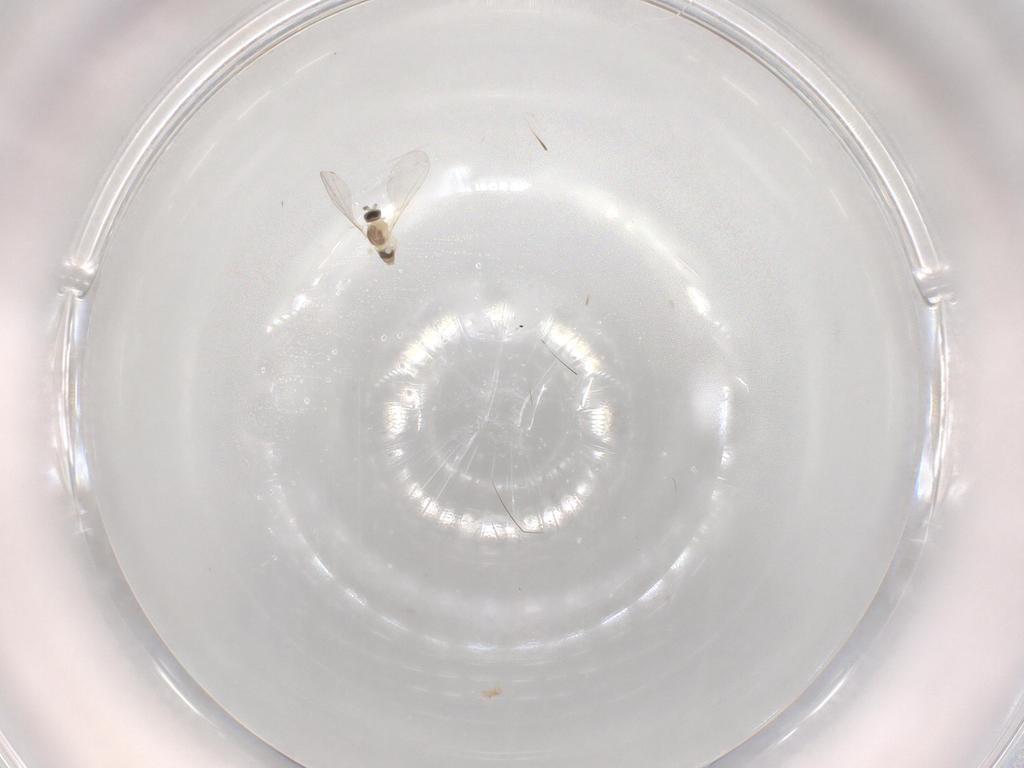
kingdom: Animalia
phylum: Arthropoda
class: Insecta
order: Diptera
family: Cecidomyiidae
